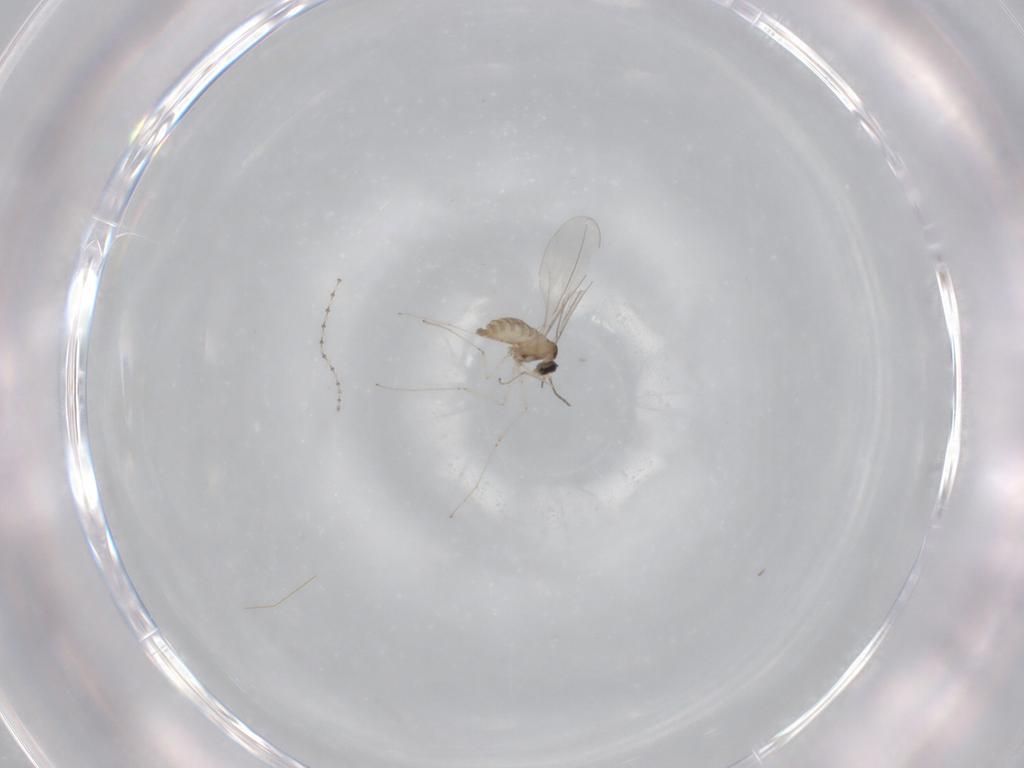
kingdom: Animalia
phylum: Arthropoda
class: Insecta
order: Diptera
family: Cecidomyiidae
